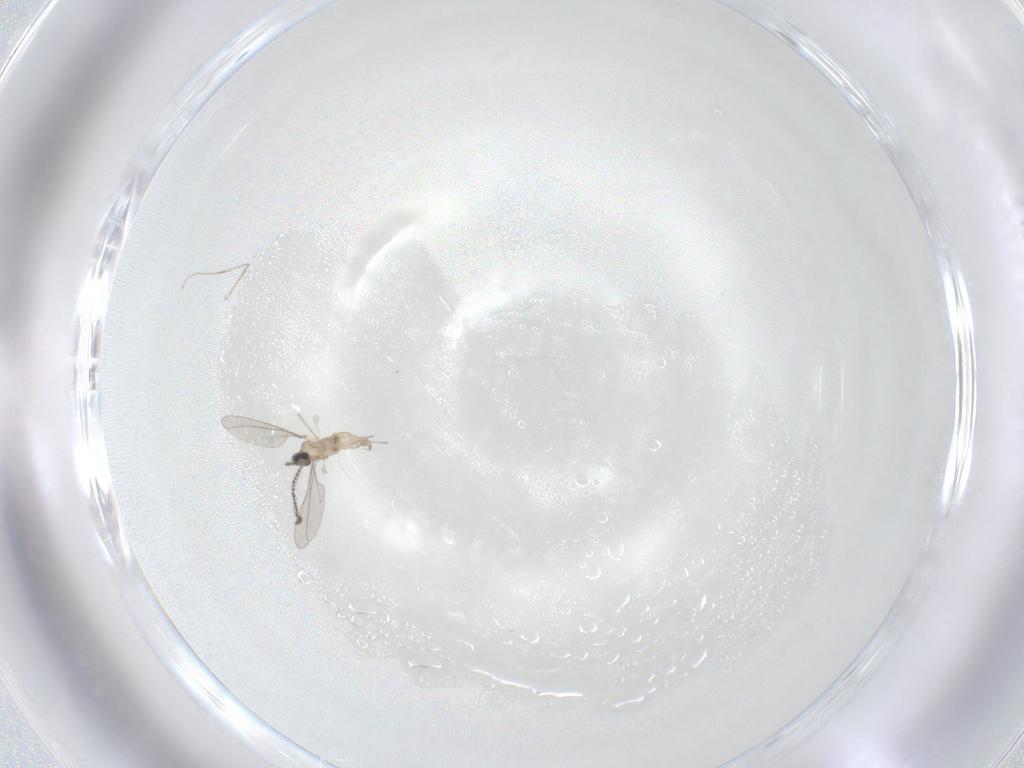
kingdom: Animalia
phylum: Arthropoda
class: Insecta
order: Diptera
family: Cecidomyiidae
